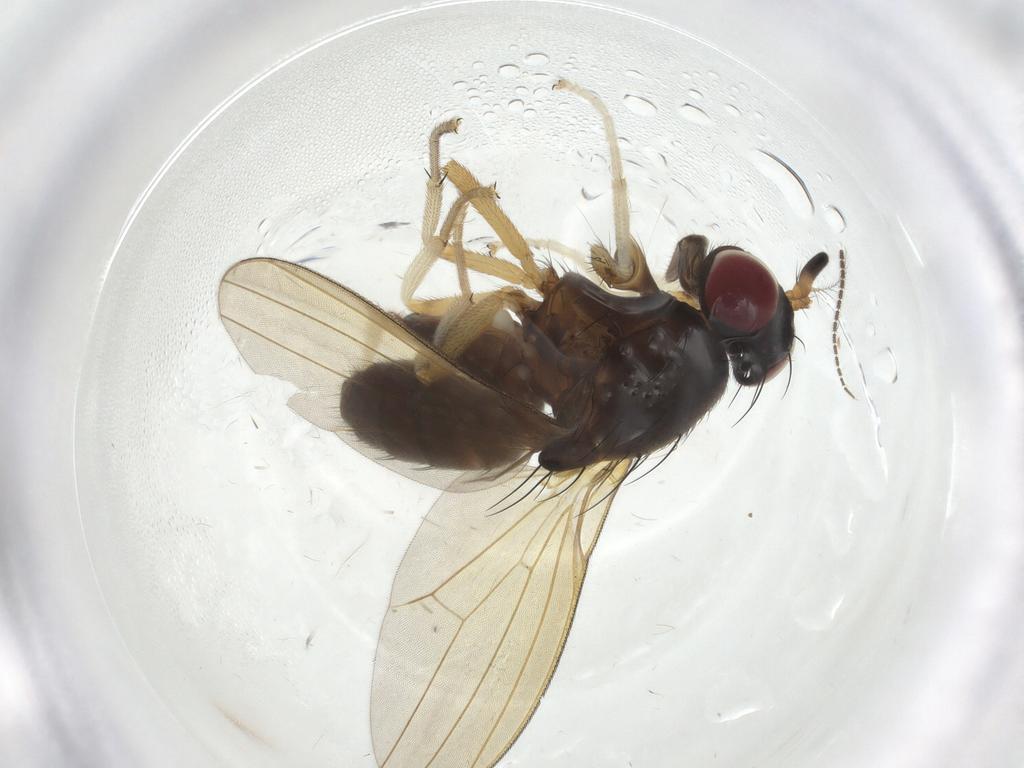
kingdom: Animalia
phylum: Arthropoda
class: Insecta
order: Diptera
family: Lauxaniidae
